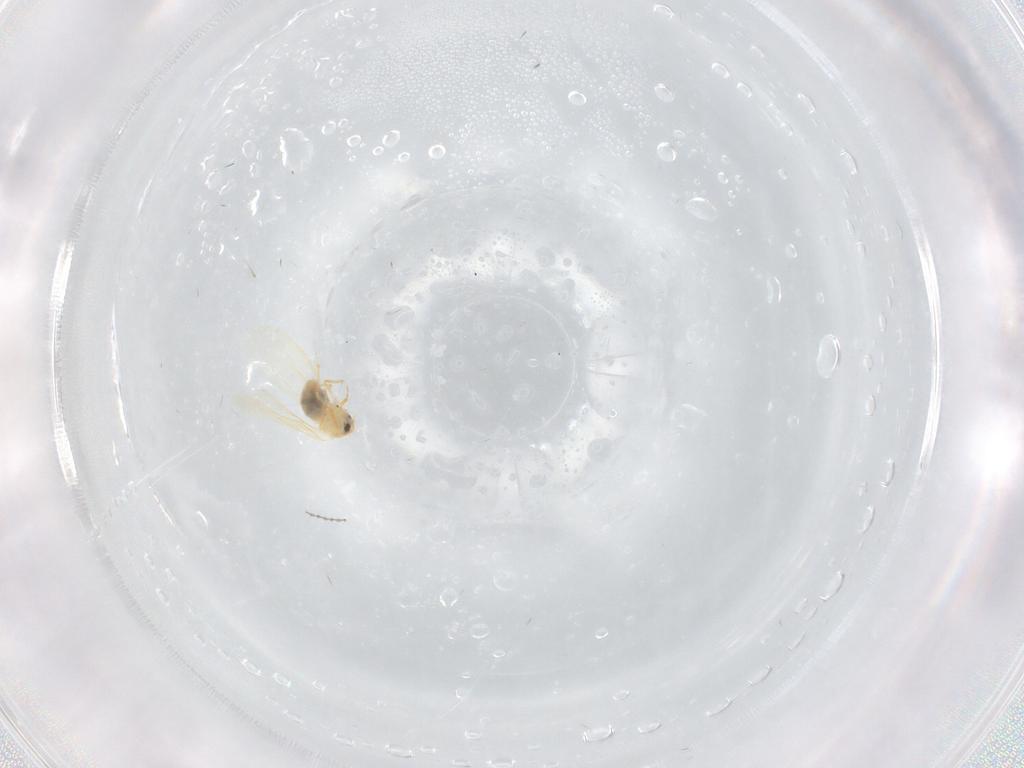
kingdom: Animalia
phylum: Arthropoda
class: Insecta
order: Hemiptera
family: Aleyrodidae
